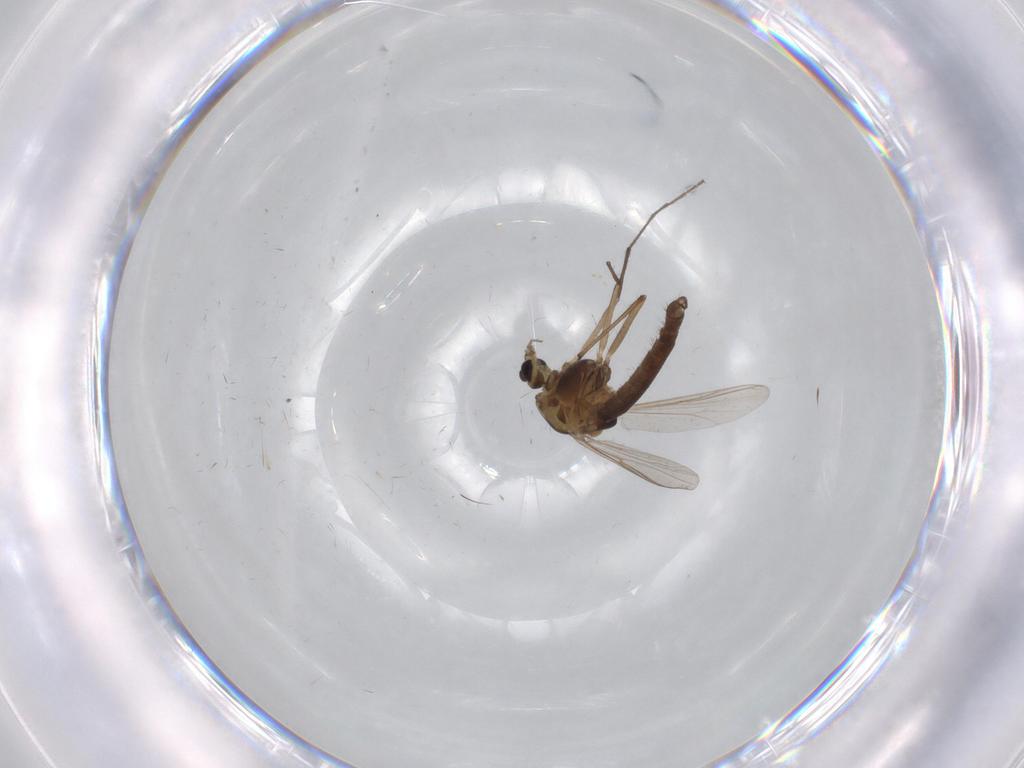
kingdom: Animalia
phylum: Arthropoda
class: Insecta
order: Diptera
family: Chironomidae
